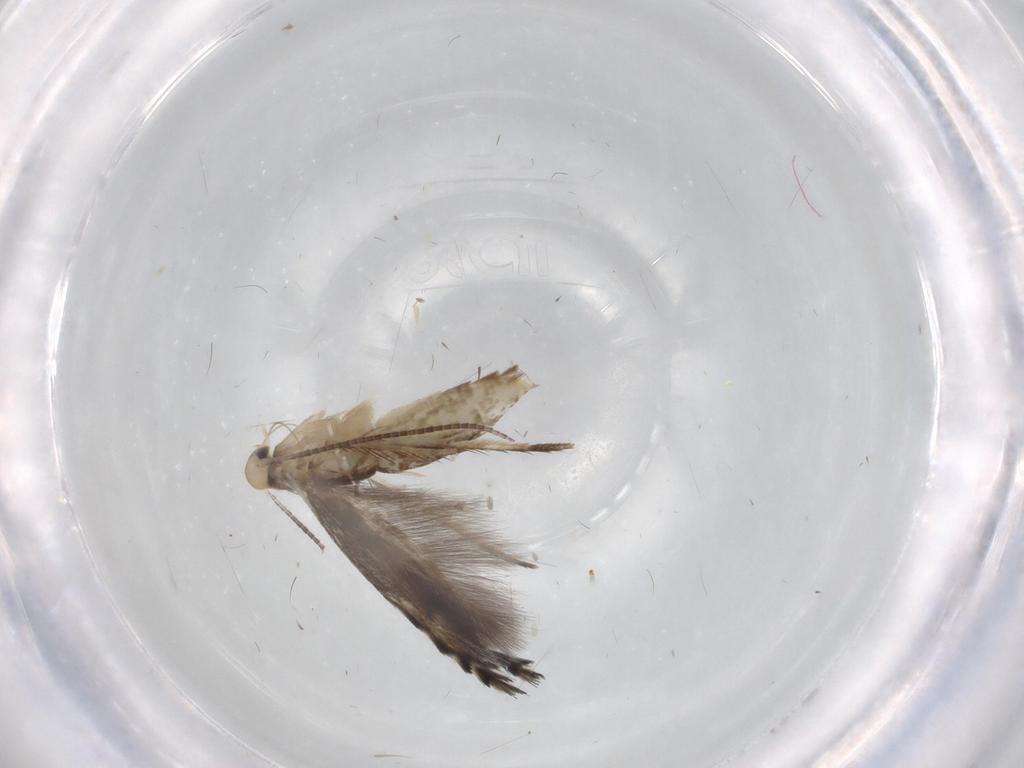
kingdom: Animalia
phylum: Arthropoda
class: Insecta
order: Lepidoptera
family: Gracillariidae
